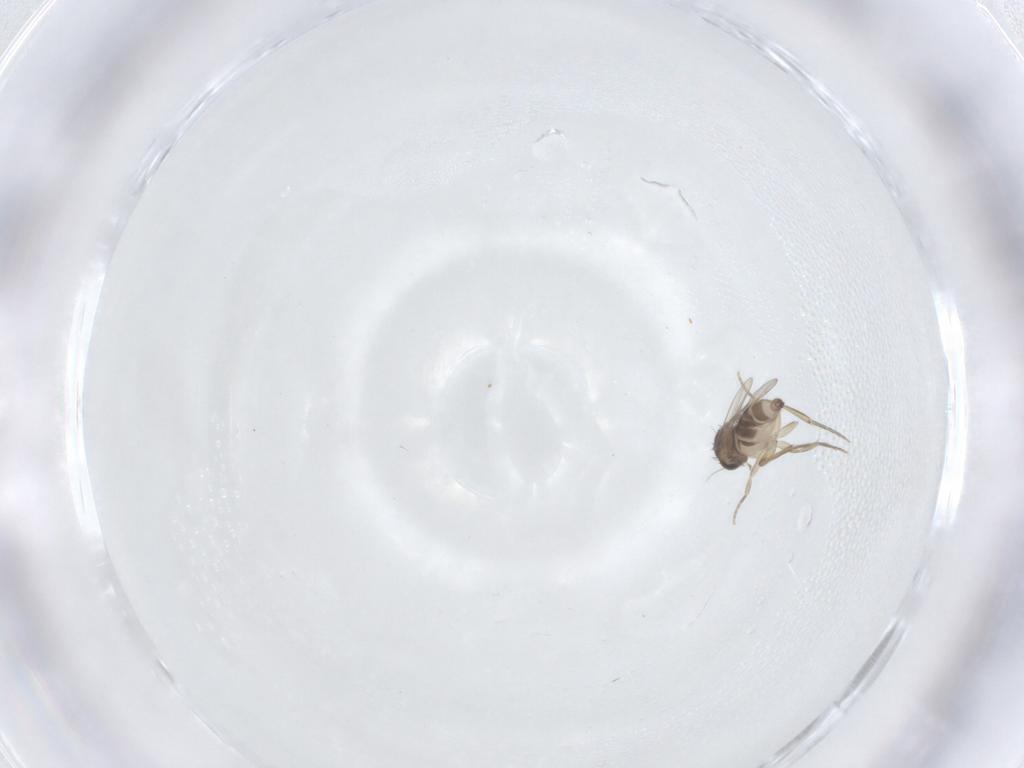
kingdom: Animalia
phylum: Arthropoda
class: Insecta
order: Diptera
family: Phoridae
